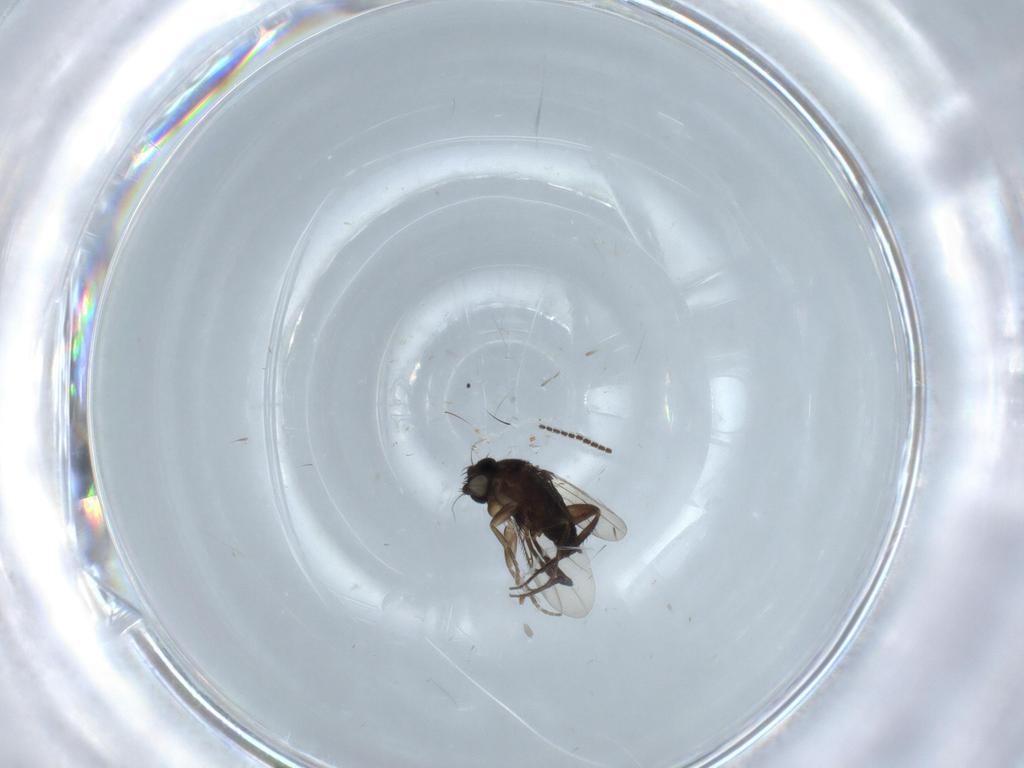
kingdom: Animalia
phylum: Arthropoda
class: Insecta
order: Diptera
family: Phoridae
